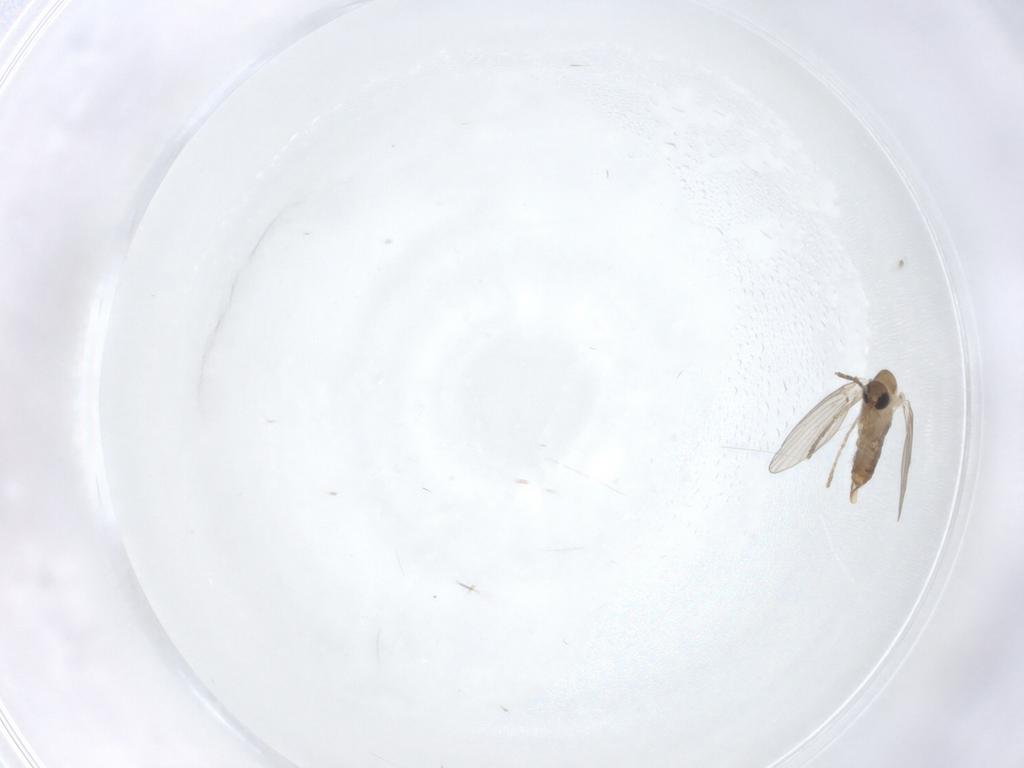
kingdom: Animalia
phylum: Arthropoda
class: Insecta
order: Diptera
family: Psychodidae
